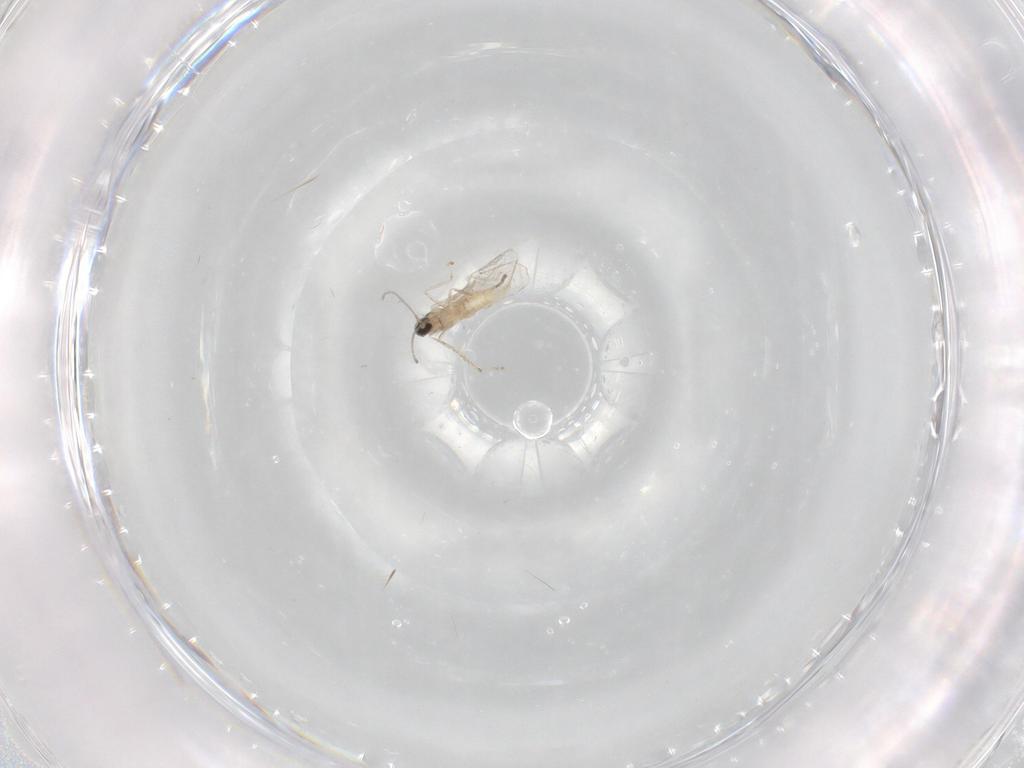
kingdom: Animalia
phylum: Arthropoda
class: Insecta
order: Diptera
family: Cecidomyiidae
